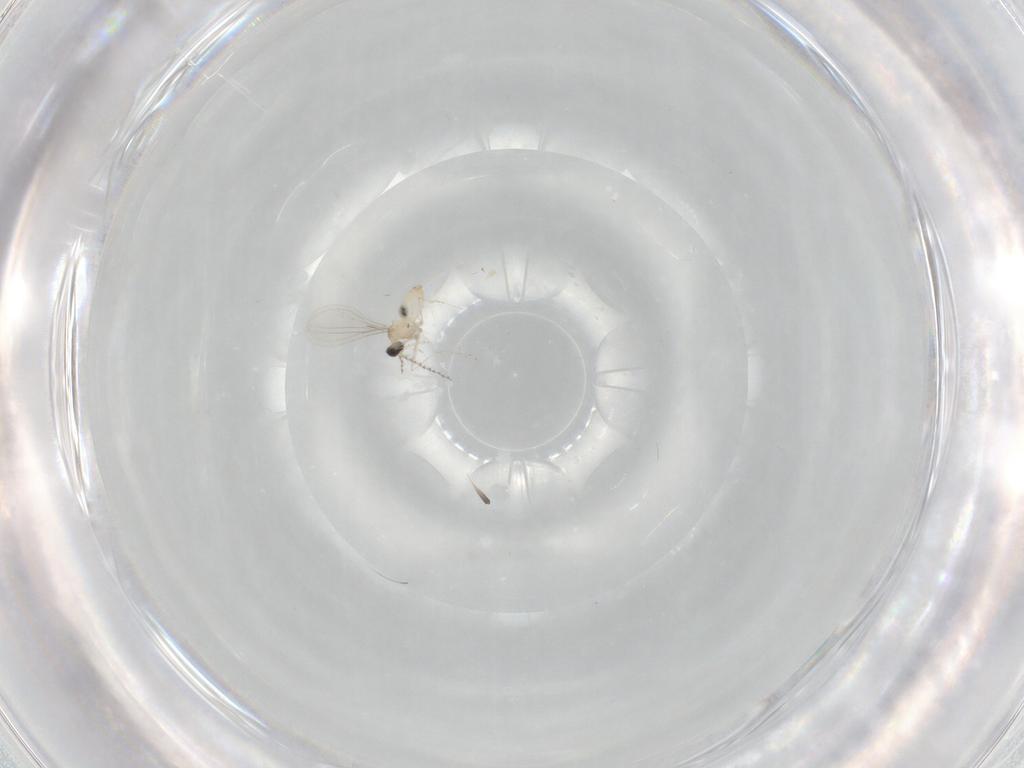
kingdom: Animalia
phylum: Arthropoda
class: Insecta
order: Diptera
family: Cecidomyiidae
